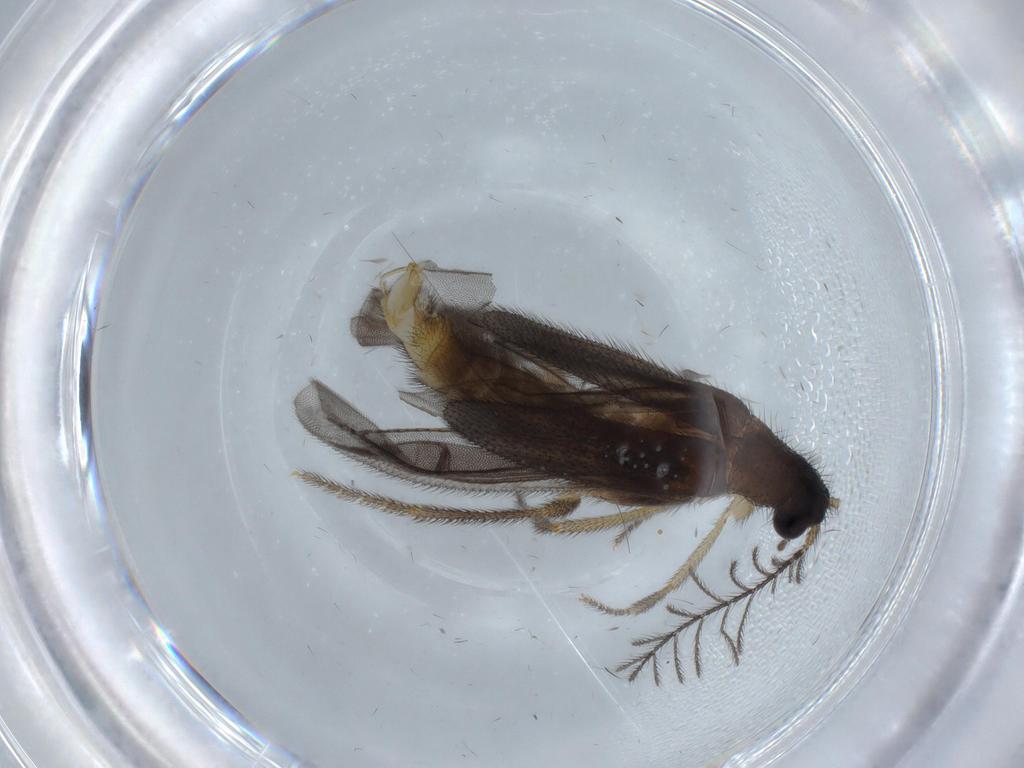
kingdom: Animalia
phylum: Arthropoda
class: Insecta
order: Coleoptera
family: Phengodidae
